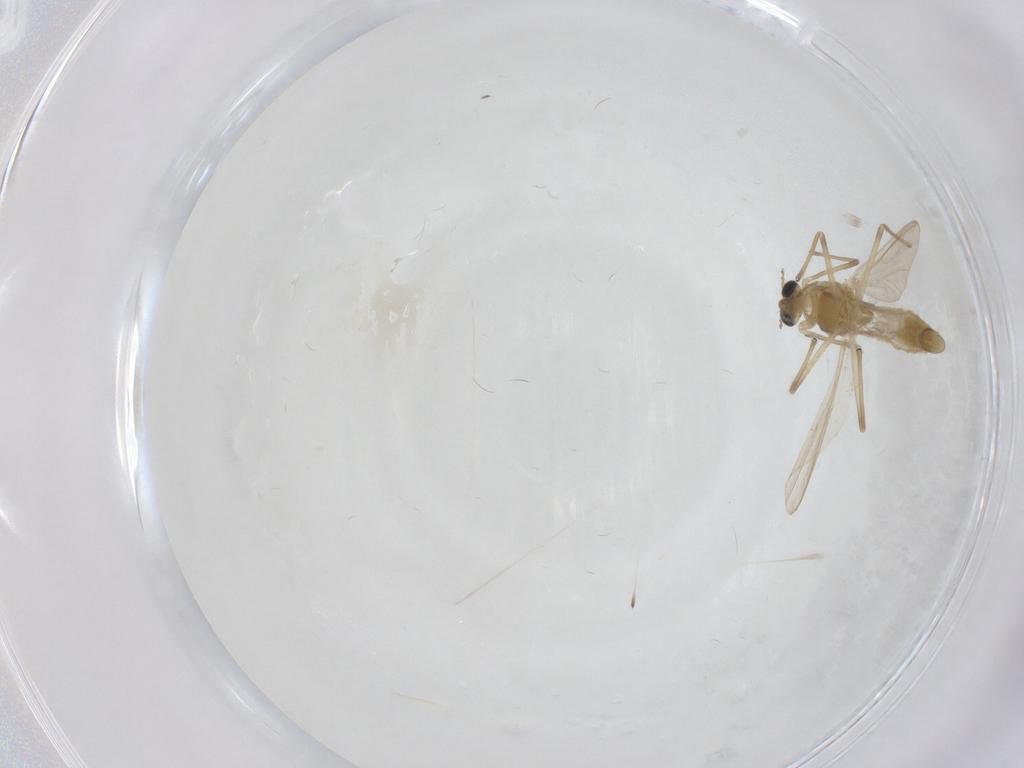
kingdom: Animalia
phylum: Arthropoda
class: Insecta
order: Diptera
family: Chironomidae
